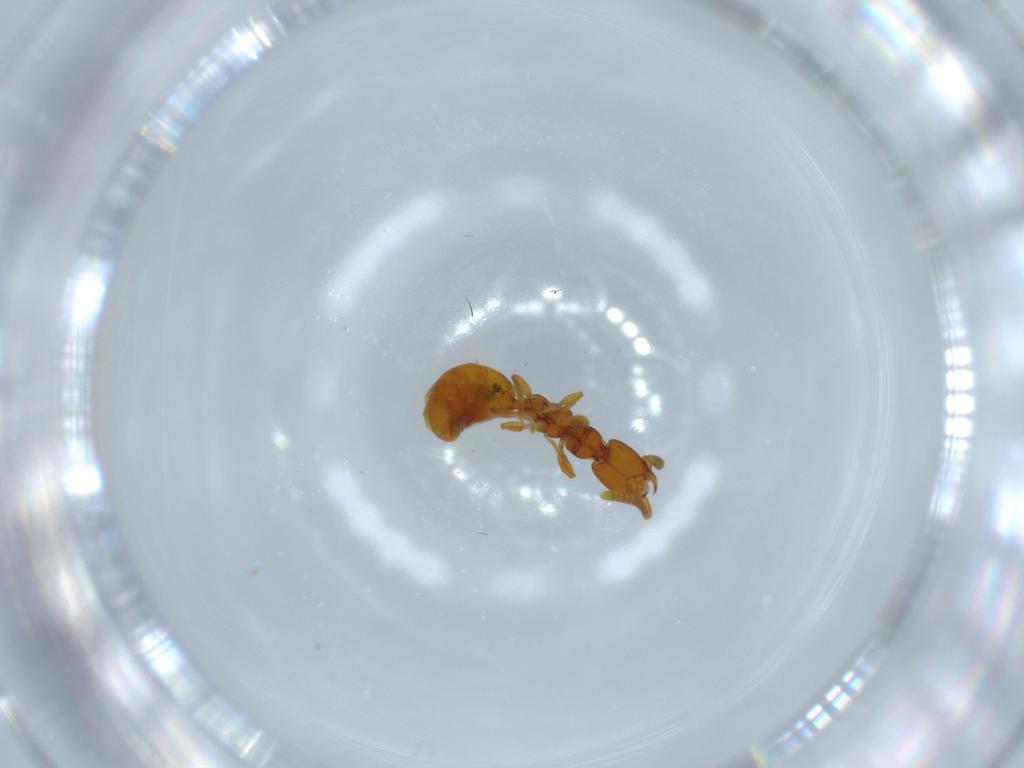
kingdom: Animalia
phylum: Arthropoda
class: Insecta
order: Hymenoptera
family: Bethylidae
